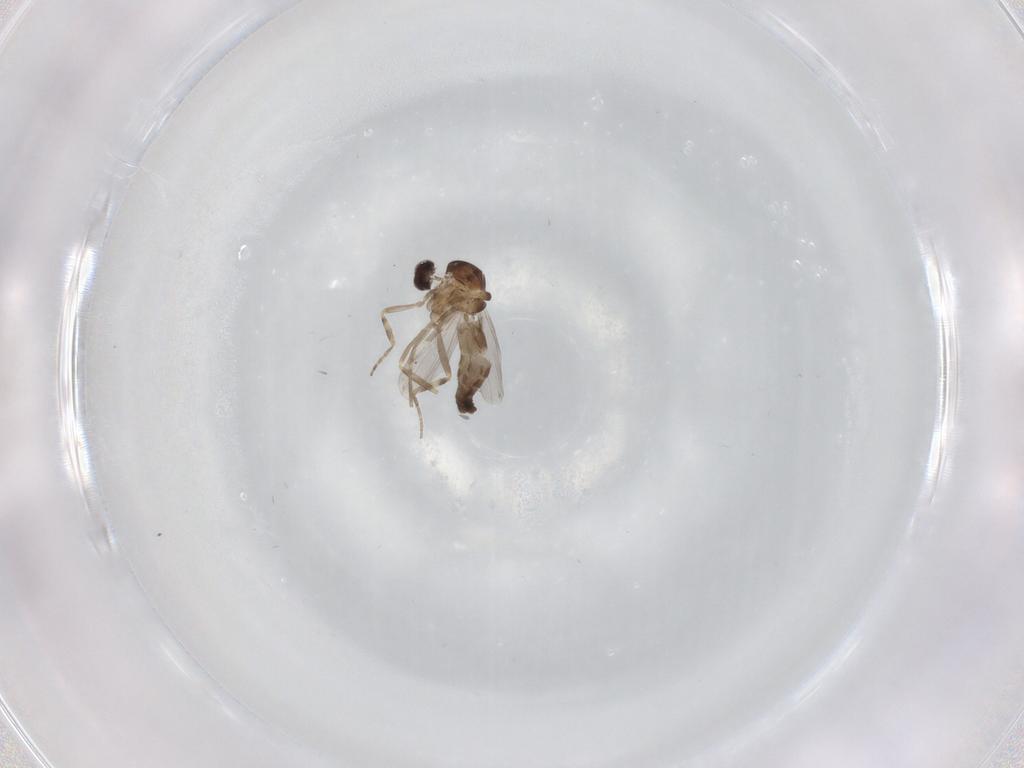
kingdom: Animalia
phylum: Arthropoda
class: Insecta
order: Diptera
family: Ceratopogonidae
